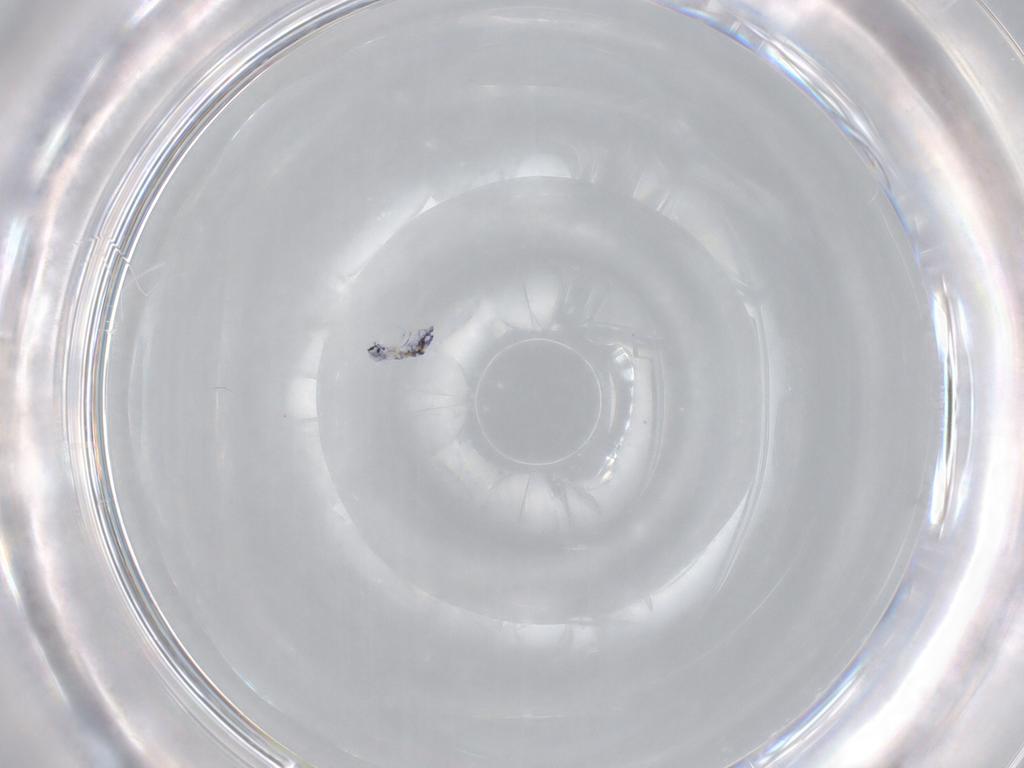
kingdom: Animalia
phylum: Arthropoda
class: Collembola
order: Entomobryomorpha
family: Entomobryidae
